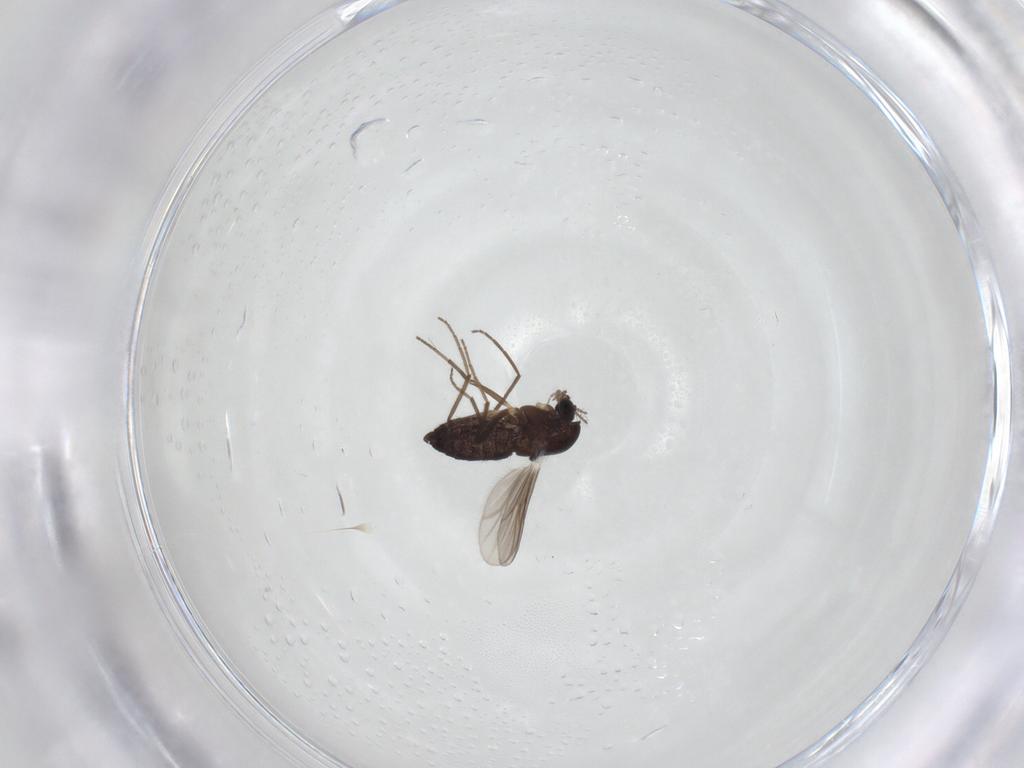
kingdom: Animalia
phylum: Arthropoda
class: Insecta
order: Diptera
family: Chironomidae
